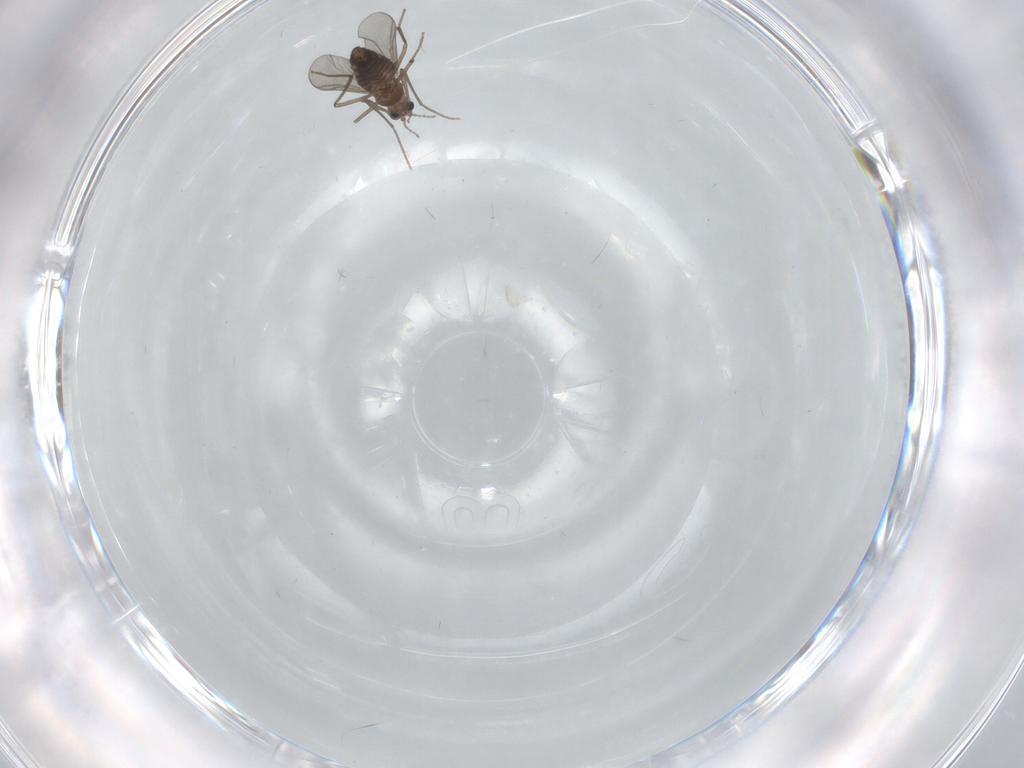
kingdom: Animalia
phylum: Arthropoda
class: Insecta
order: Diptera
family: Chironomidae
